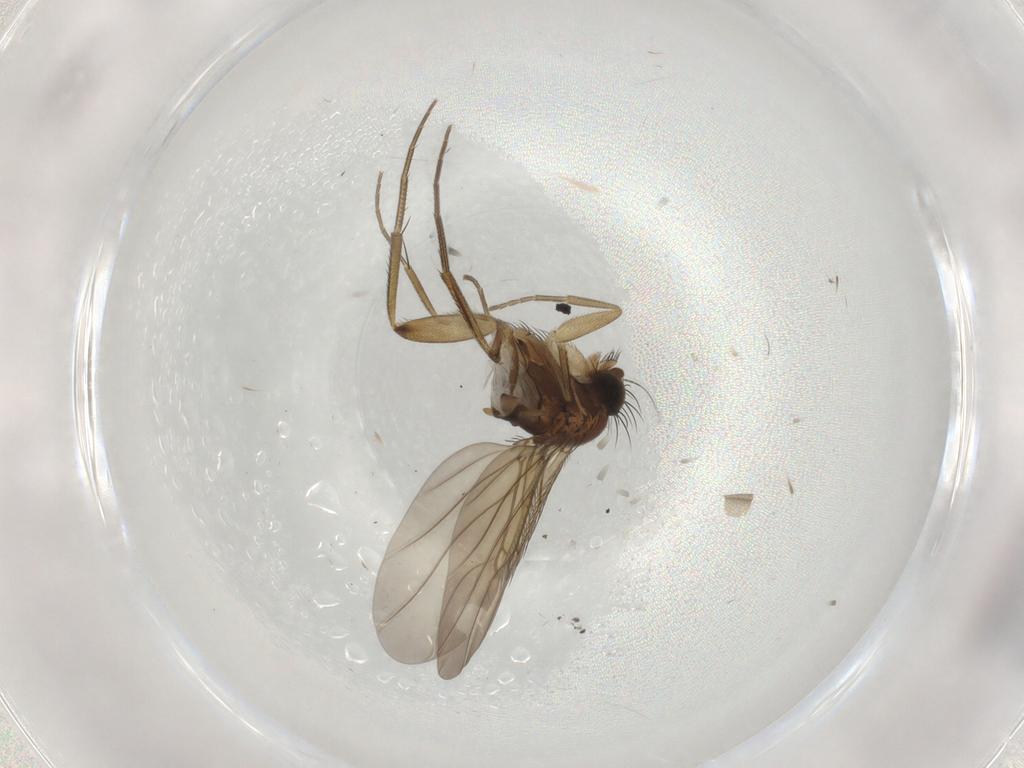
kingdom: Animalia
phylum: Arthropoda
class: Insecta
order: Diptera
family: Phoridae
